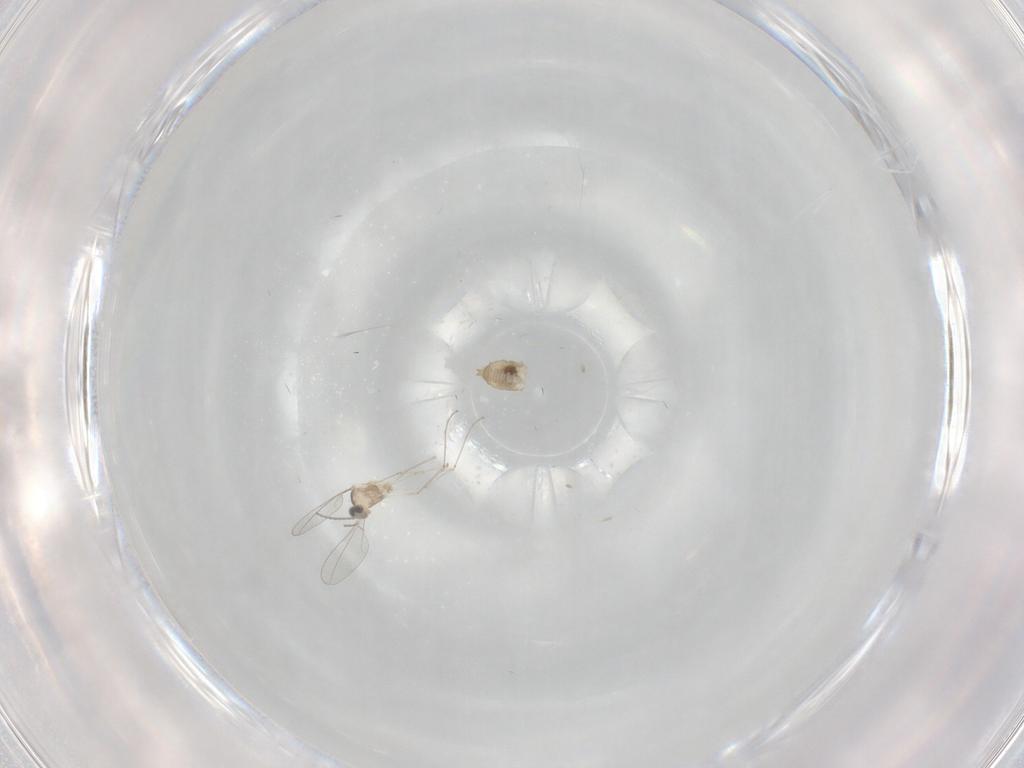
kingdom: Animalia
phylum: Arthropoda
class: Insecta
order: Diptera
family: Cecidomyiidae
